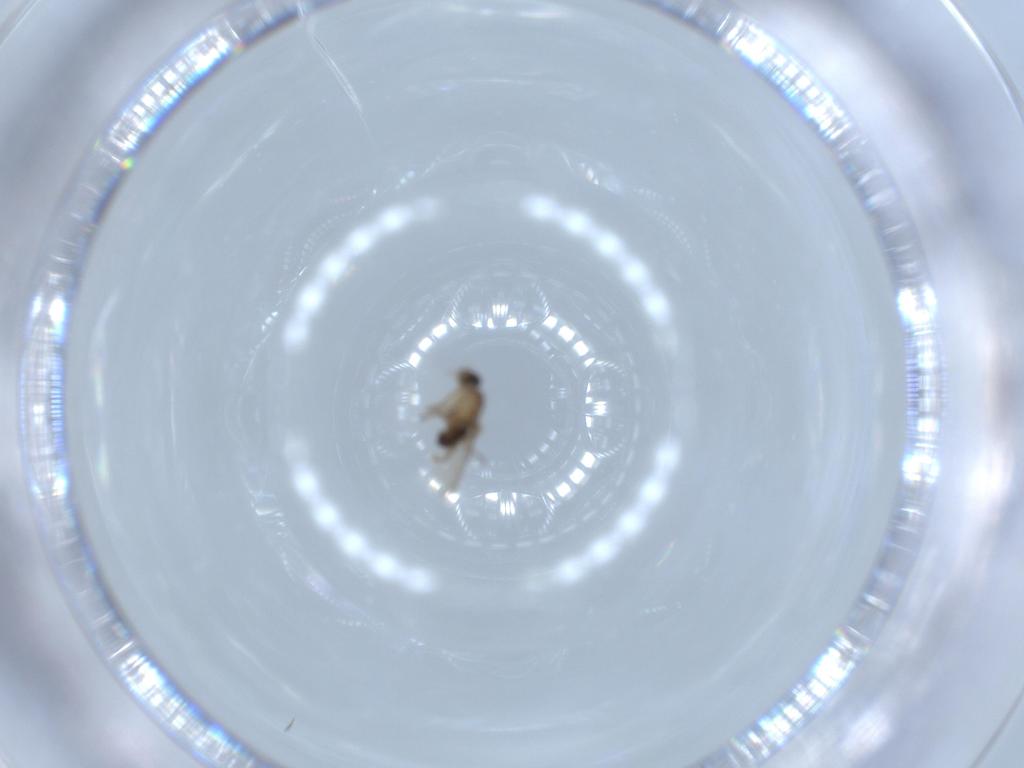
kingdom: Animalia
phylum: Arthropoda
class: Insecta
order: Diptera
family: Phoridae
